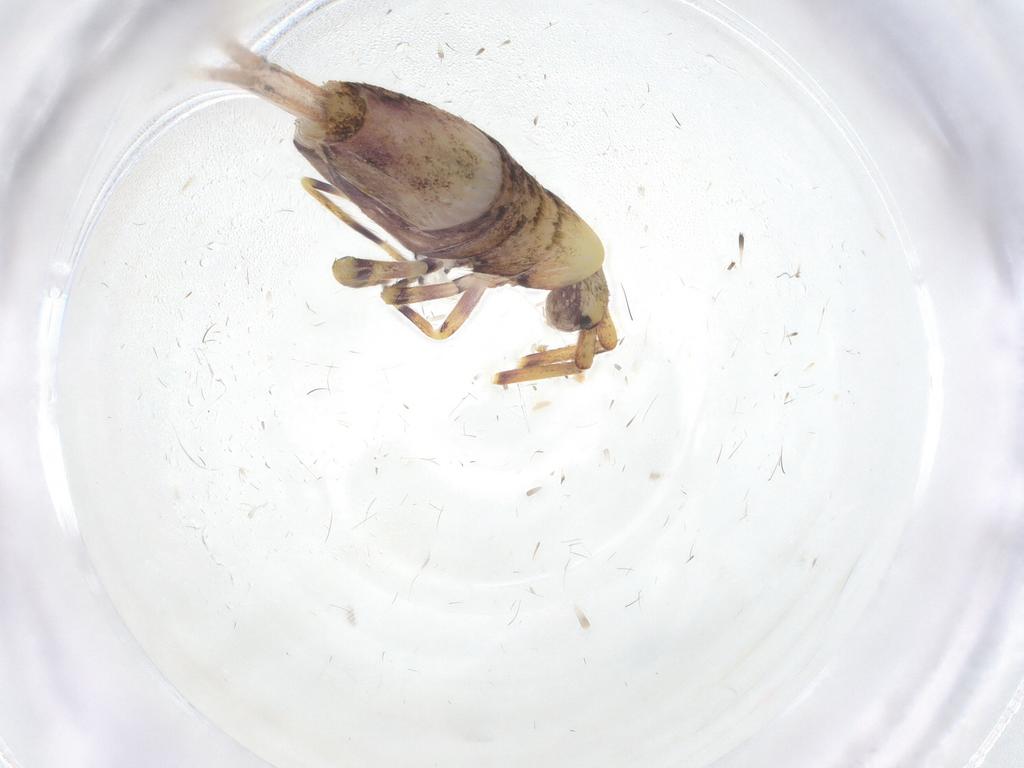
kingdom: Animalia
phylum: Arthropoda
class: Collembola
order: Entomobryomorpha
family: Entomobryidae
